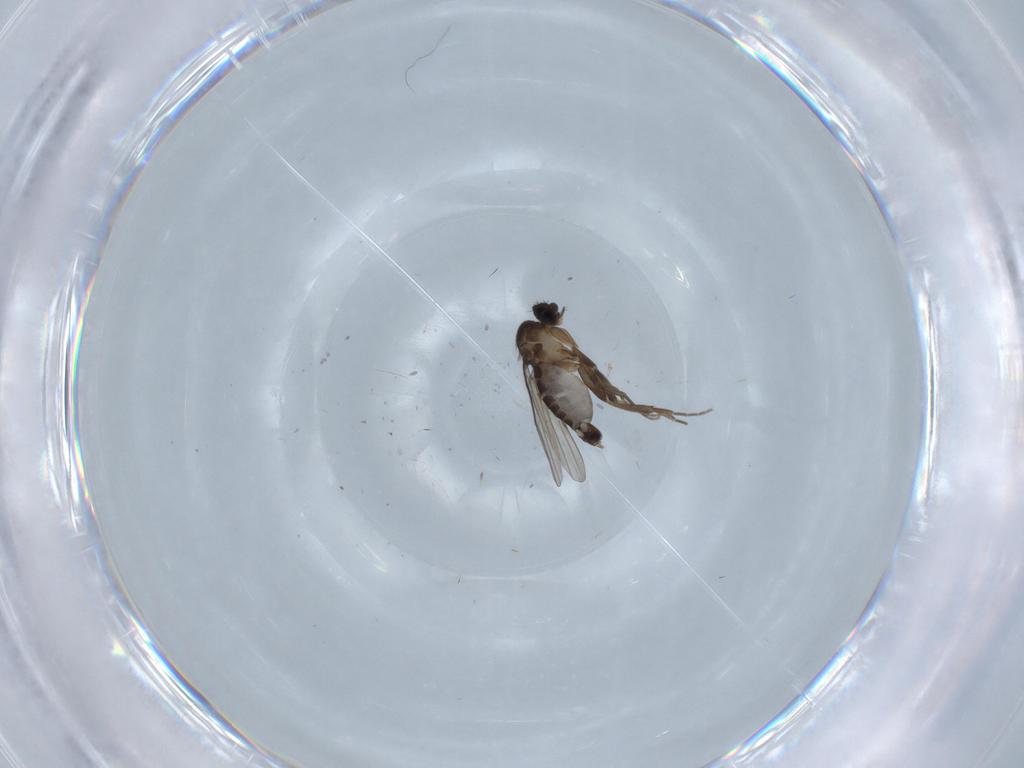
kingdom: Animalia
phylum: Arthropoda
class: Insecta
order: Diptera
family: Phoridae
